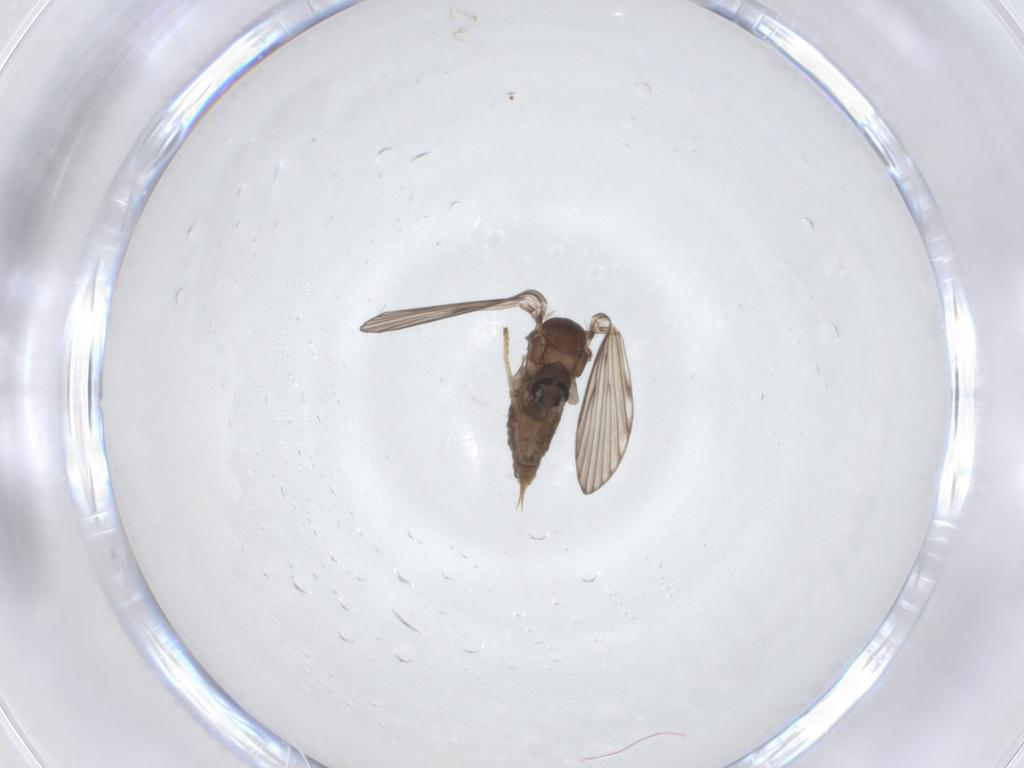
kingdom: Animalia
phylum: Arthropoda
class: Insecta
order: Diptera
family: Psychodidae
